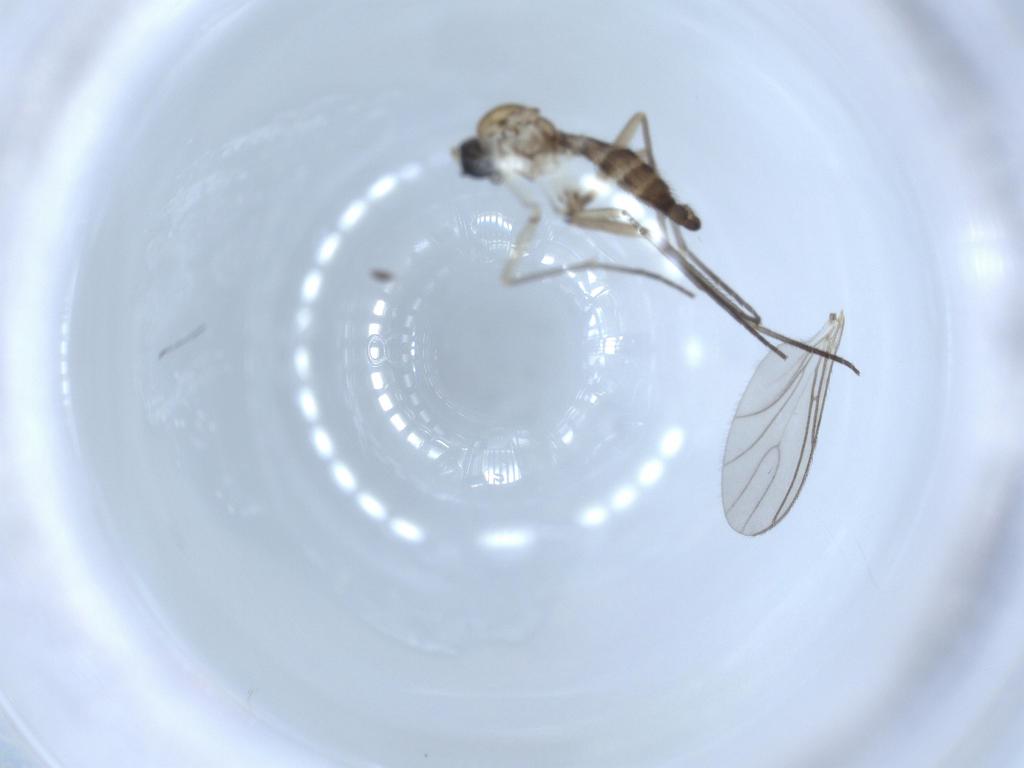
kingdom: Animalia
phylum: Arthropoda
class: Insecta
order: Diptera
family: Sciaridae
